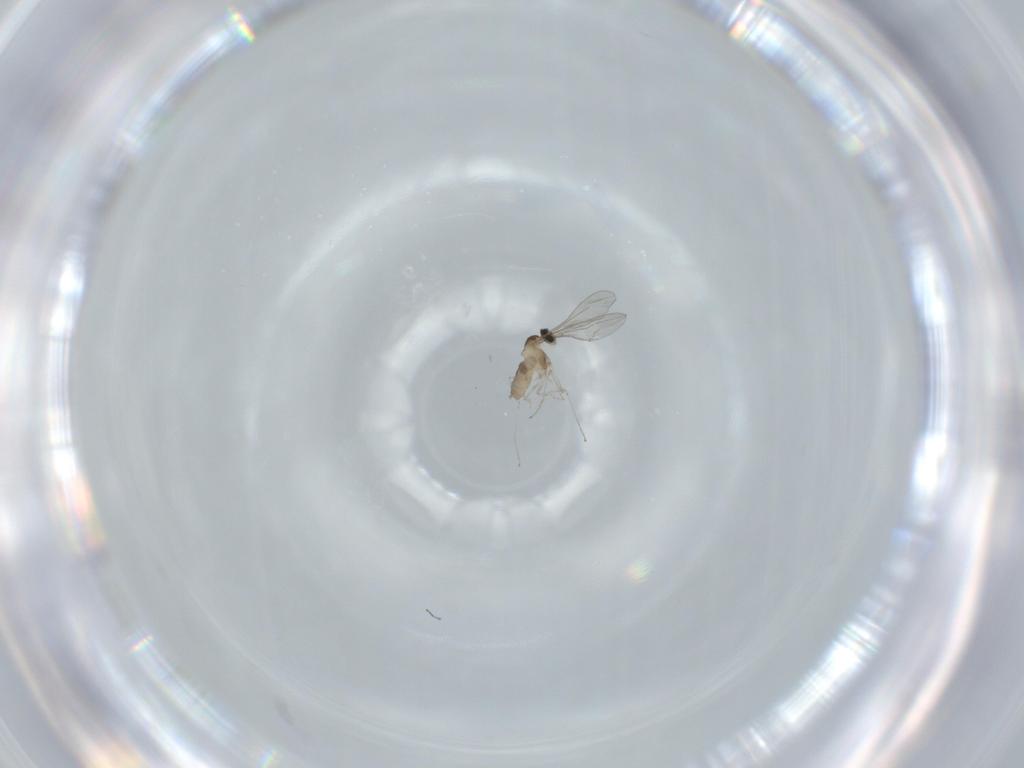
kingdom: Animalia
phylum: Arthropoda
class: Insecta
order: Diptera
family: Cecidomyiidae
